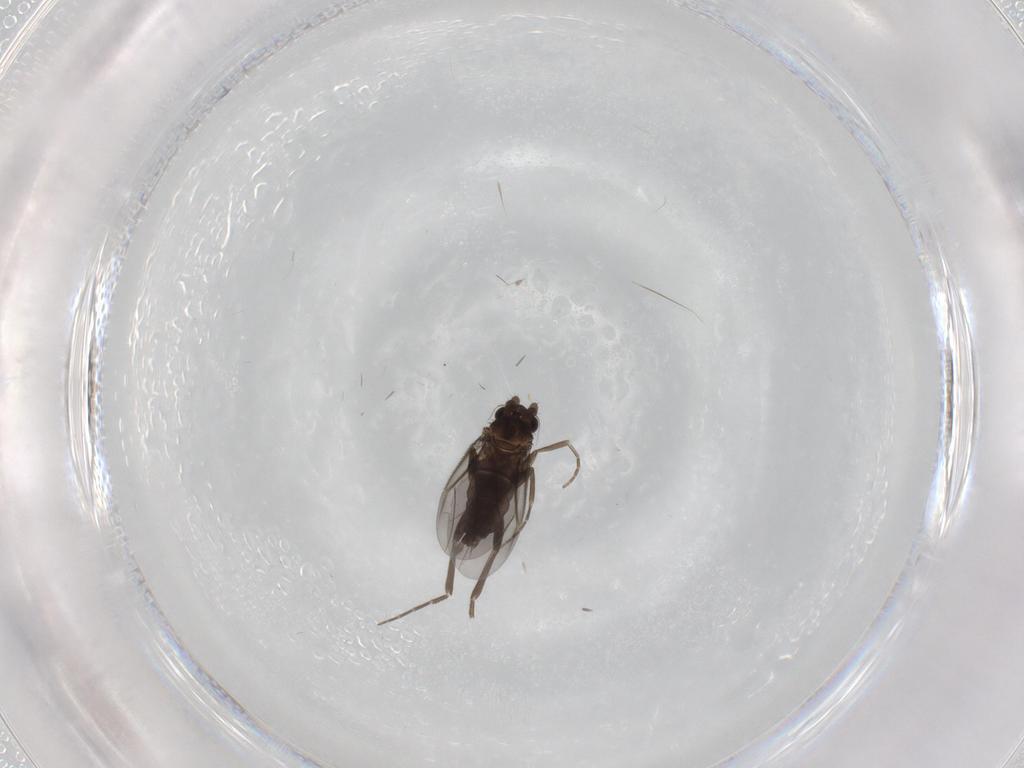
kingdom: Animalia
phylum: Arthropoda
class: Insecta
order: Diptera
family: Cecidomyiidae
